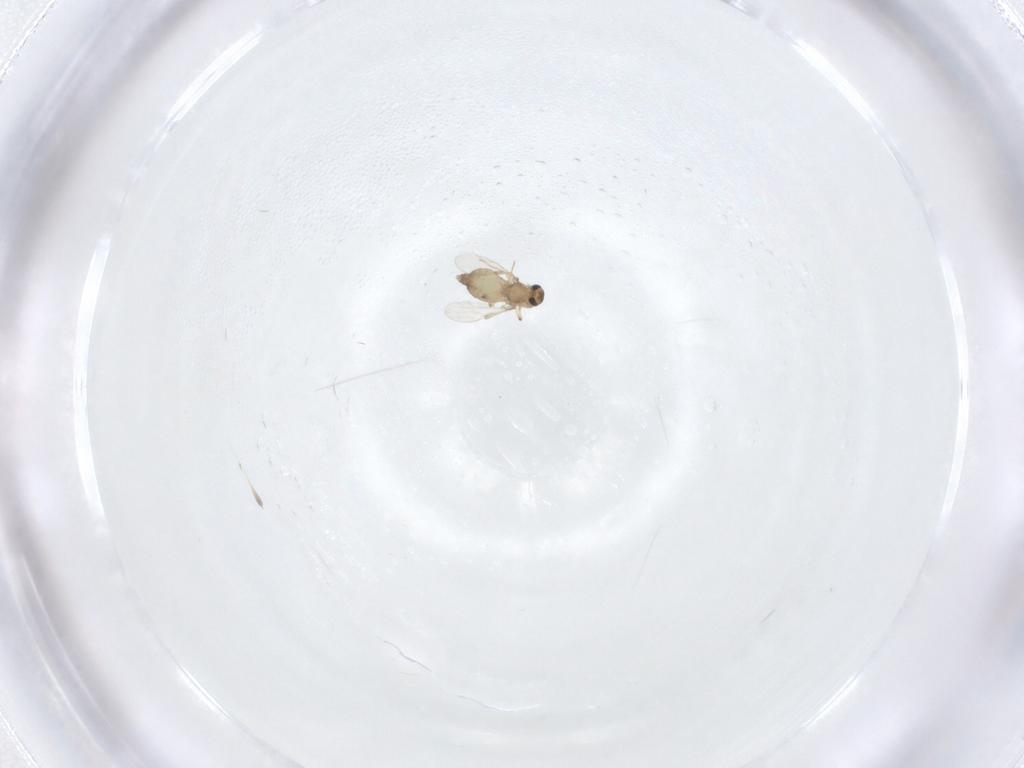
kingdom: Animalia
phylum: Arthropoda
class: Insecta
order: Diptera
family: Chironomidae
